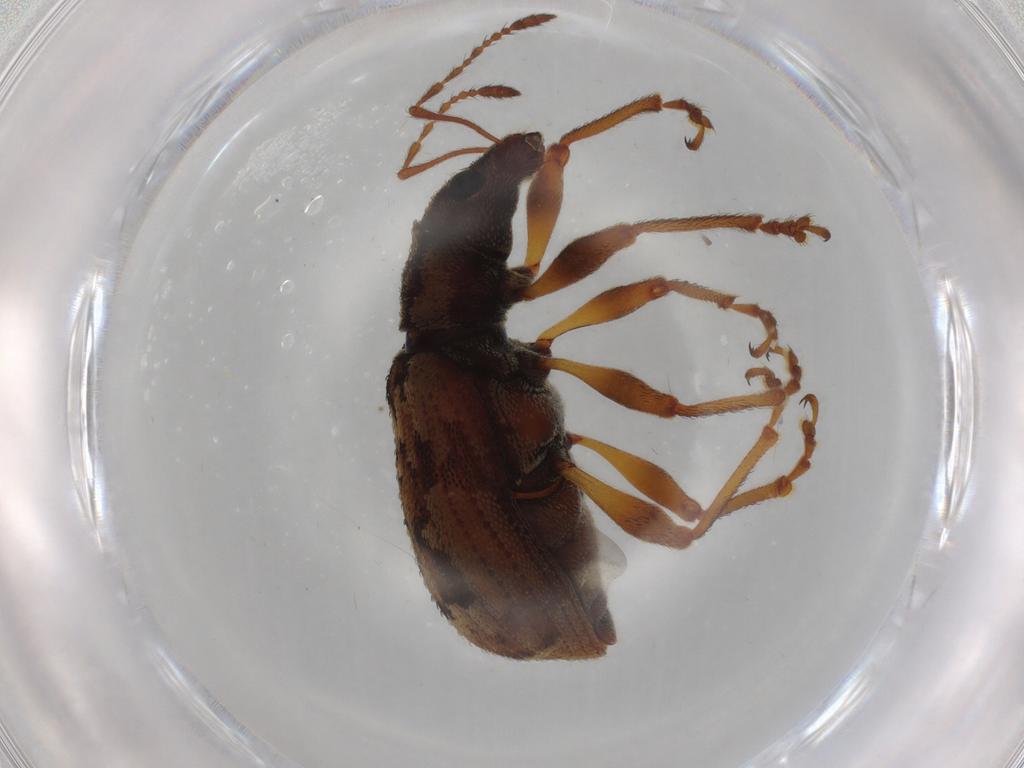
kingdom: Animalia
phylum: Arthropoda
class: Insecta
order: Coleoptera
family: Curculionidae
